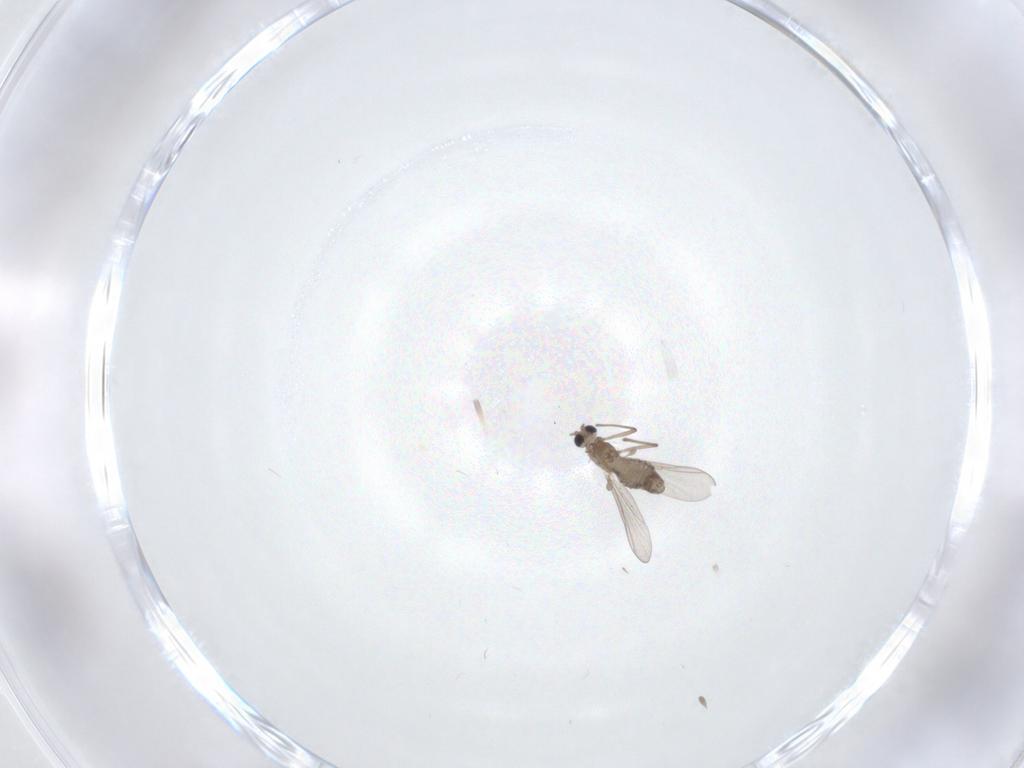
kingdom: Animalia
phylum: Arthropoda
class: Insecta
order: Diptera
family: Chironomidae
